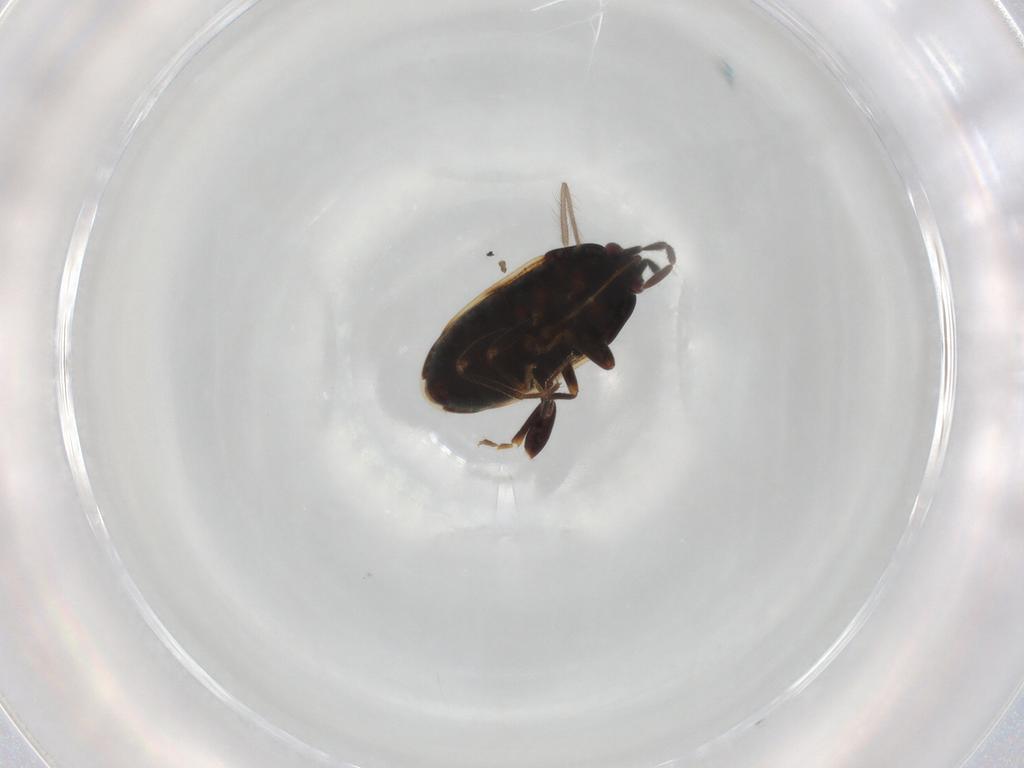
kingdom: Animalia
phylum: Arthropoda
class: Insecta
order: Hemiptera
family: Rhyparochromidae
